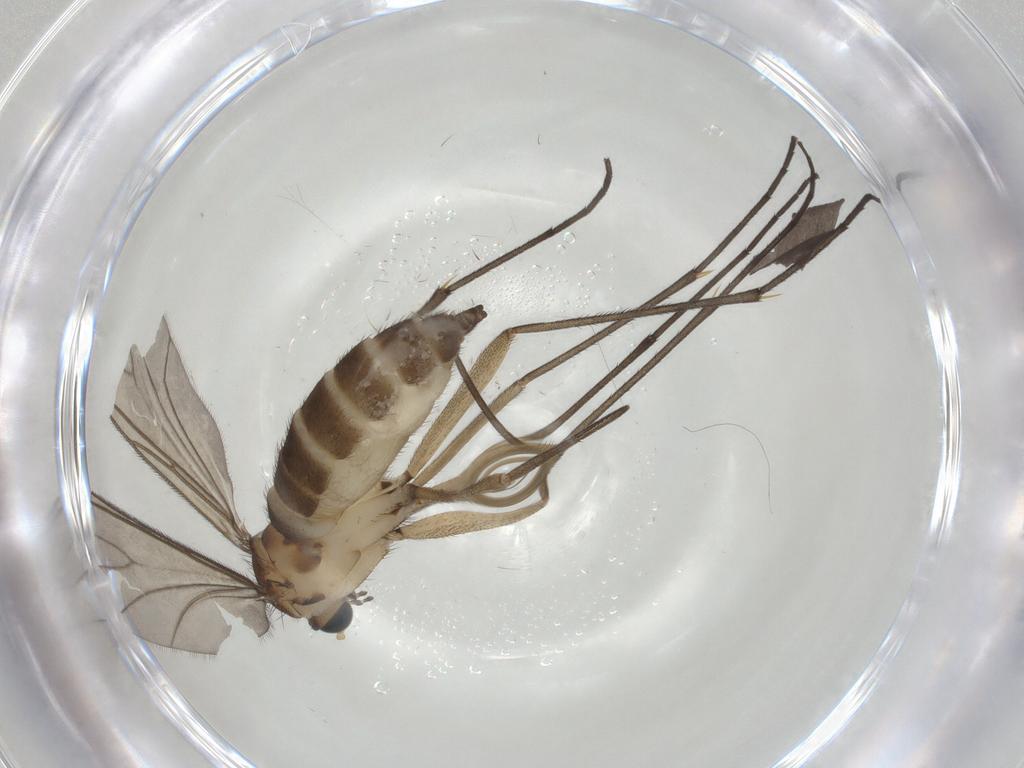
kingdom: Animalia
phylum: Arthropoda
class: Insecta
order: Diptera
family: Sciaridae
